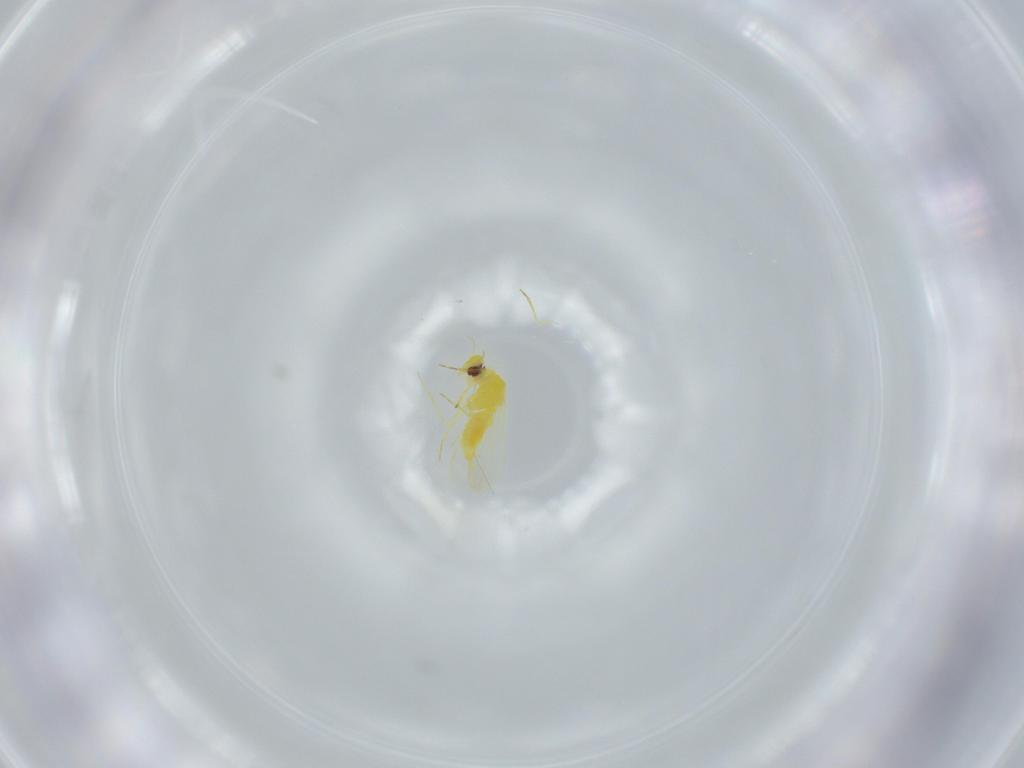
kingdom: Animalia
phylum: Arthropoda
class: Insecta
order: Hemiptera
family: Aleyrodidae
